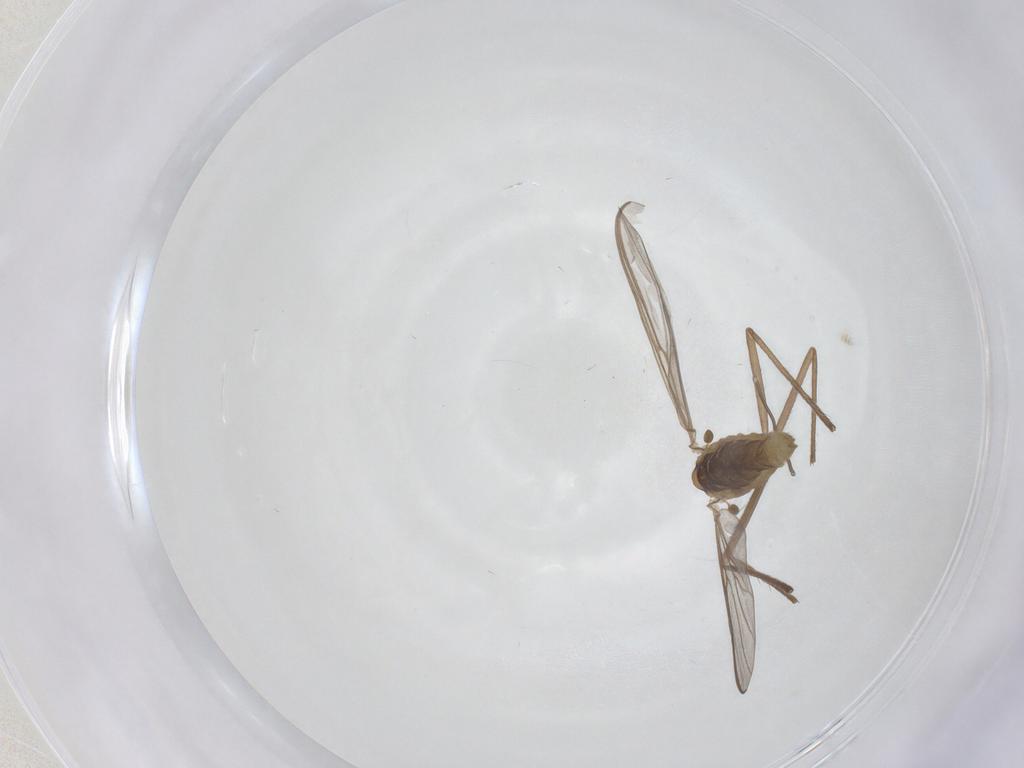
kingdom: Animalia
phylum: Arthropoda
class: Insecta
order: Diptera
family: Chironomidae
